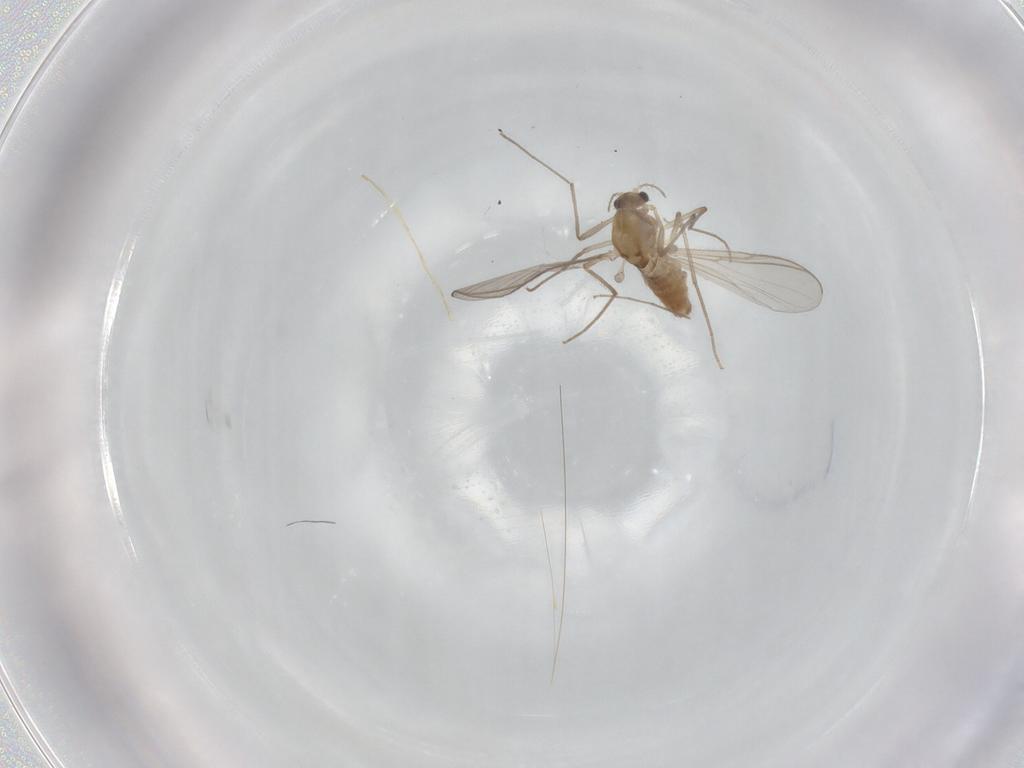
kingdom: Animalia
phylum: Arthropoda
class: Insecta
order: Diptera
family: Chironomidae
